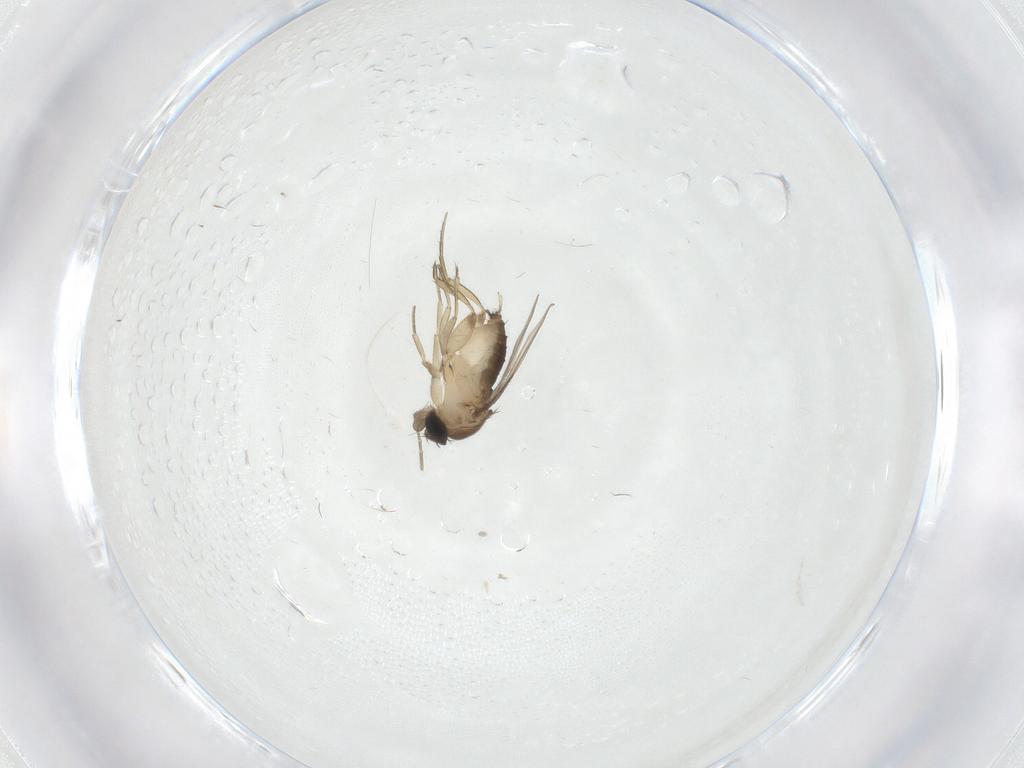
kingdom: Animalia
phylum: Arthropoda
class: Insecta
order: Diptera
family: Phoridae
